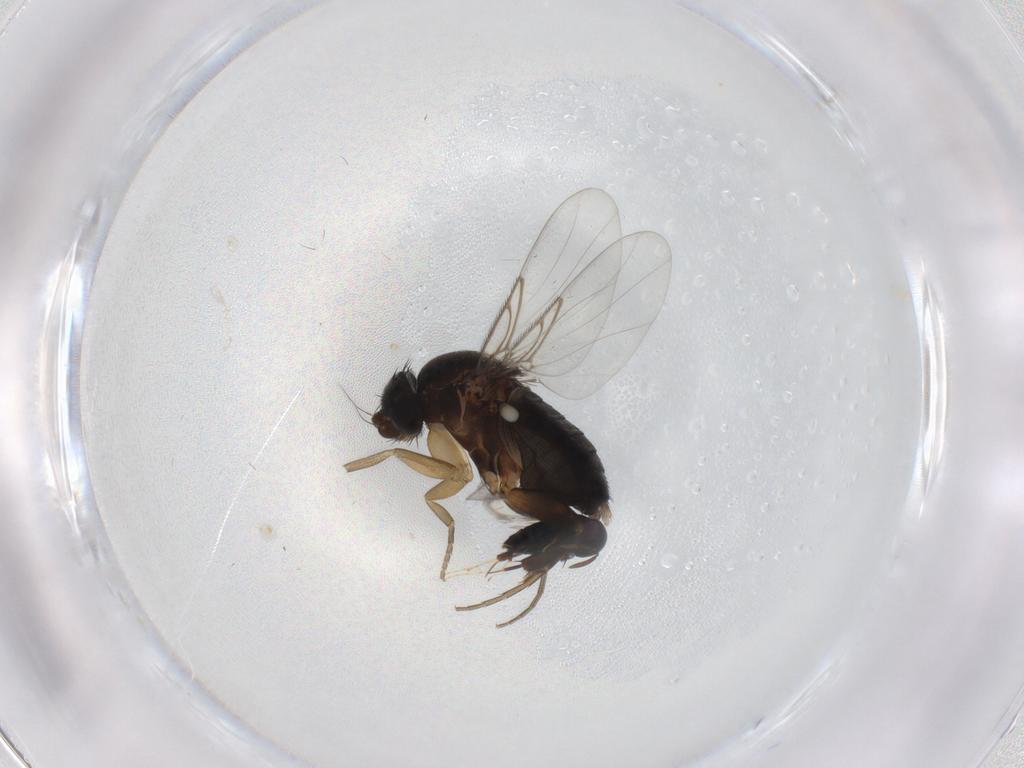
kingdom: Animalia
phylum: Arthropoda
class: Insecta
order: Diptera
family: Phoridae
